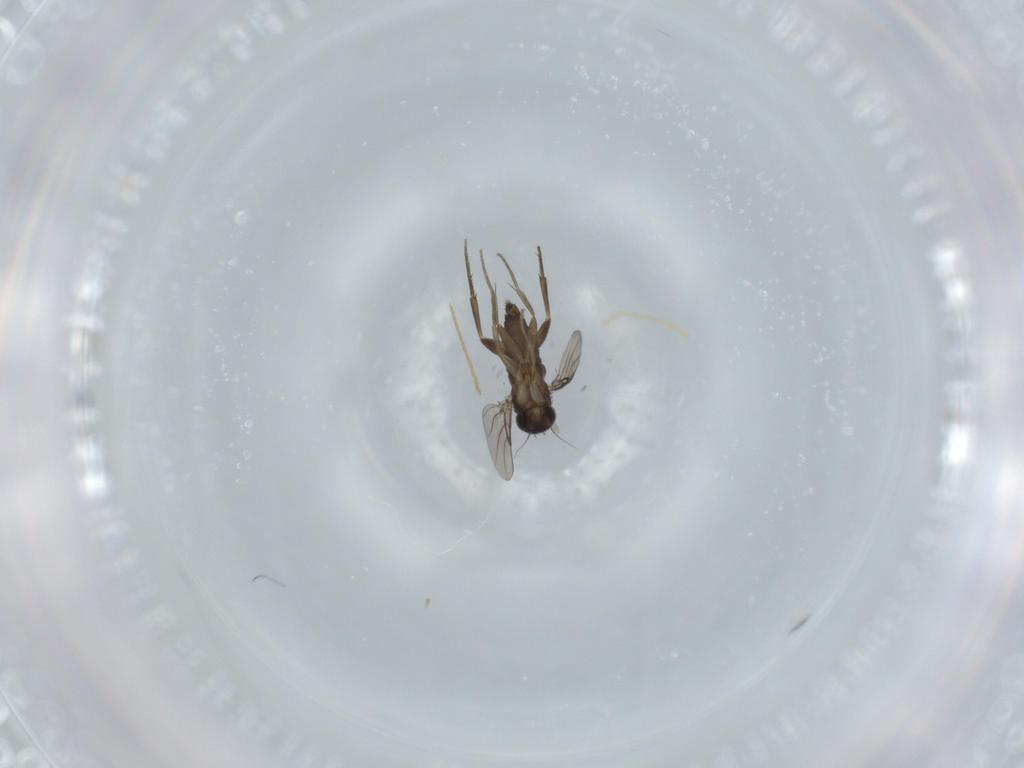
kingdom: Animalia
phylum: Arthropoda
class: Insecta
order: Diptera
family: Phoridae
